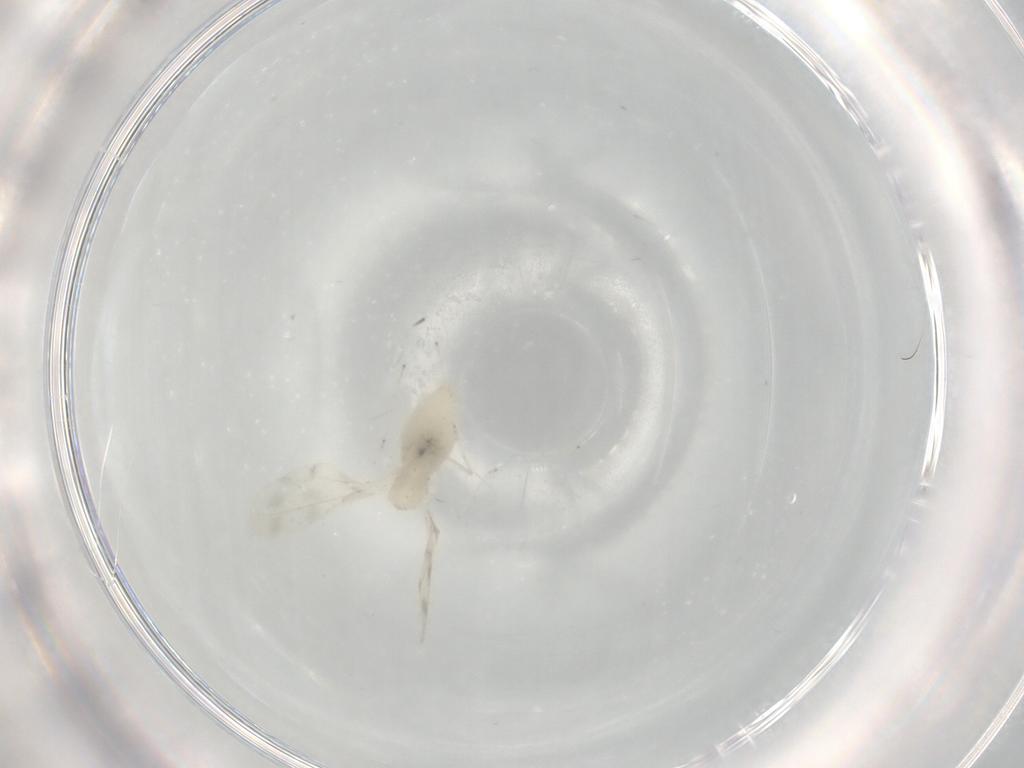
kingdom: Animalia
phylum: Arthropoda
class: Insecta
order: Diptera
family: Cecidomyiidae
